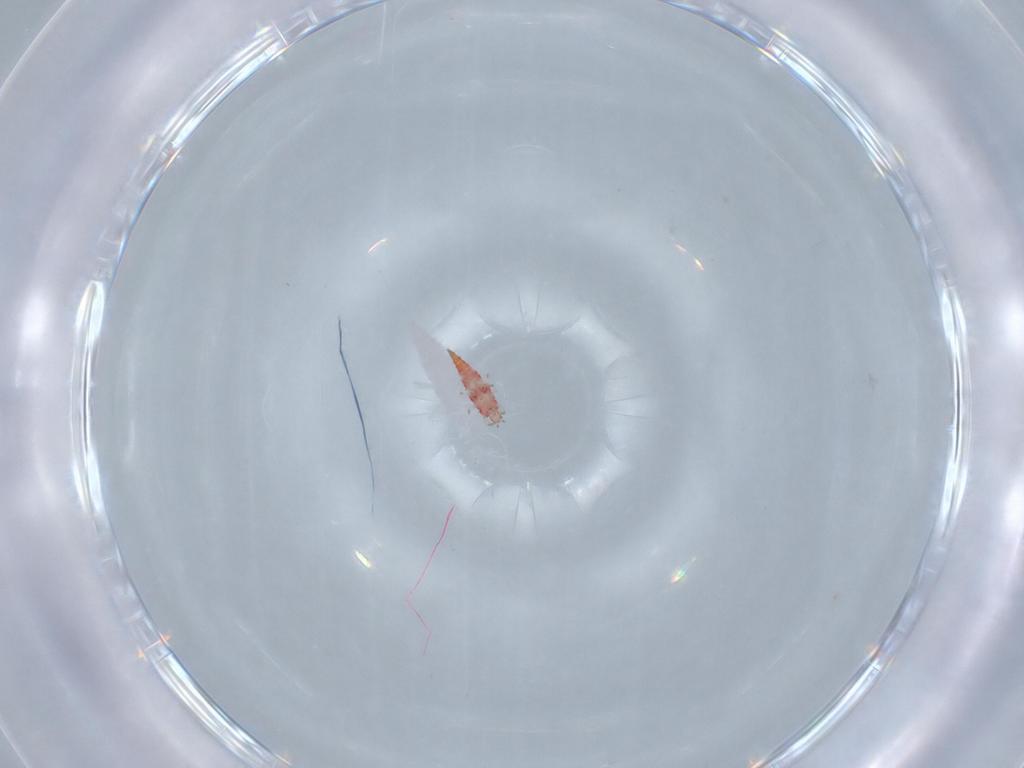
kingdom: Animalia
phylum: Arthropoda
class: Insecta
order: Thysanoptera
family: Phlaeothripidae
